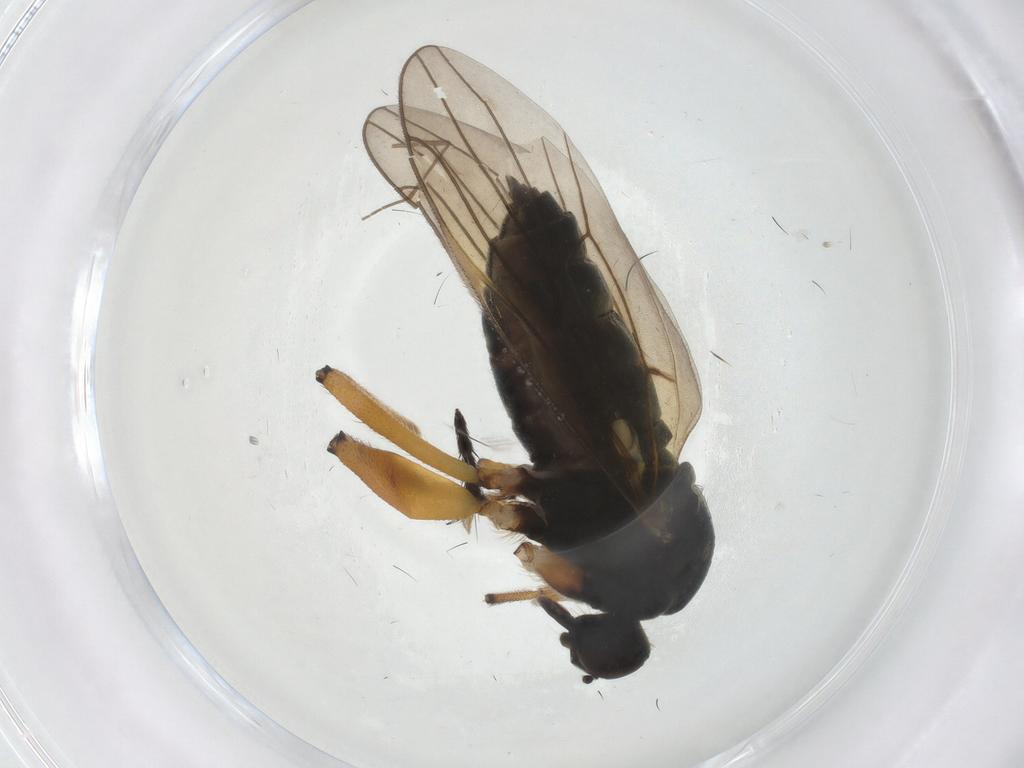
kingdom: Animalia
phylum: Arthropoda
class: Insecta
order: Diptera
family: Hybotidae
